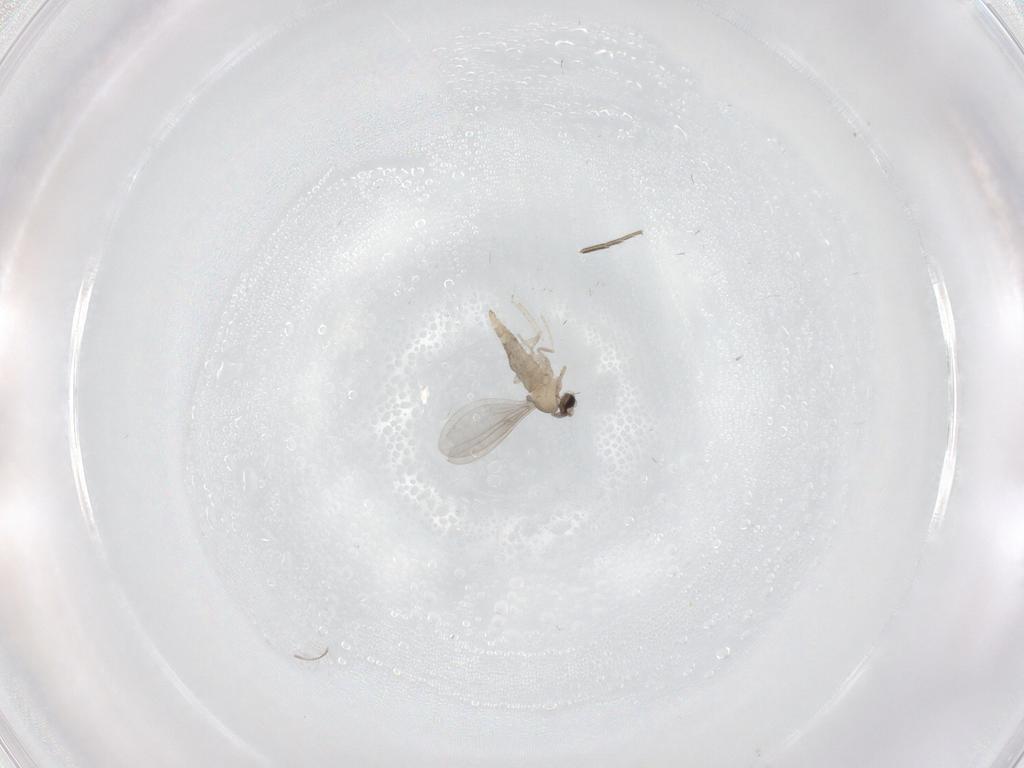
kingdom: Animalia
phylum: Arthropoda
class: Insecta
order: Diptera
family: Cecidomyiidae
